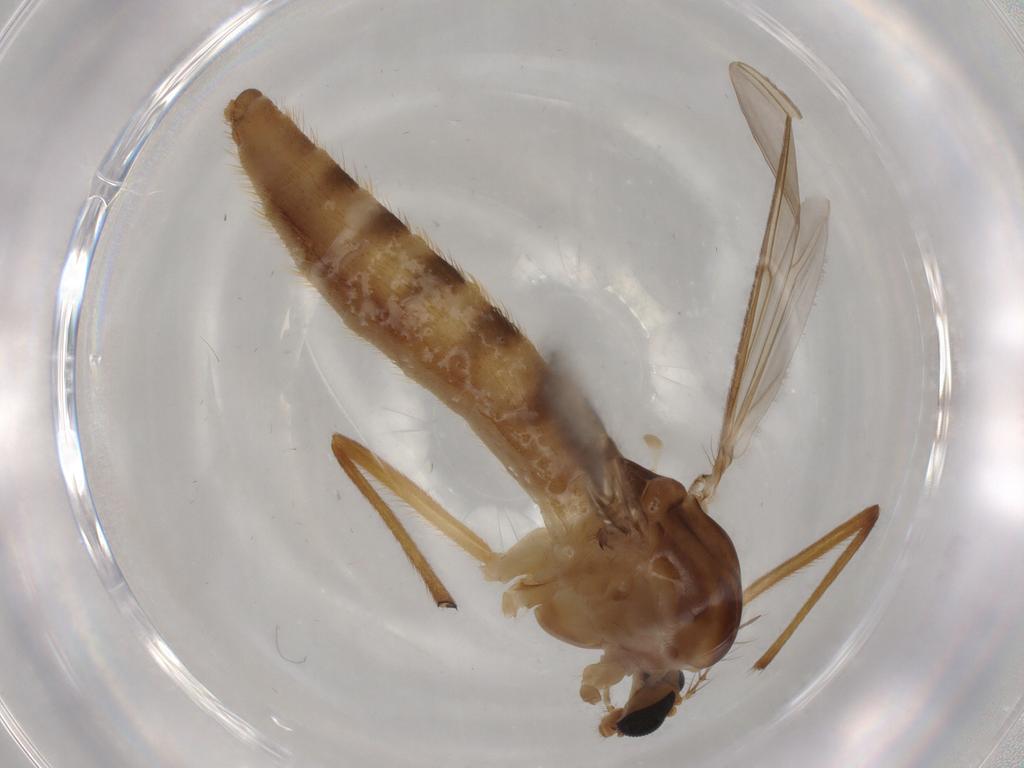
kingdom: Animalia
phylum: Arthropoda
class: Insecta
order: Diptera
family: Chironomidae
